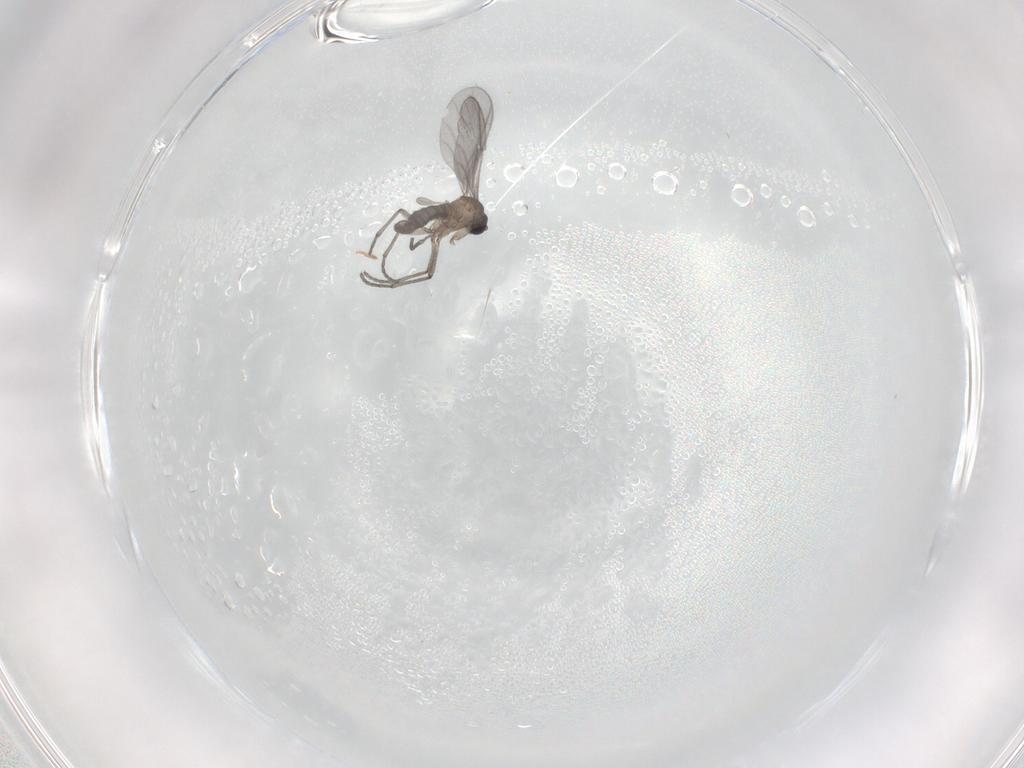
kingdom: Animalia
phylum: Arthropoda
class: Insecta
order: Diptera
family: Chironomidae
